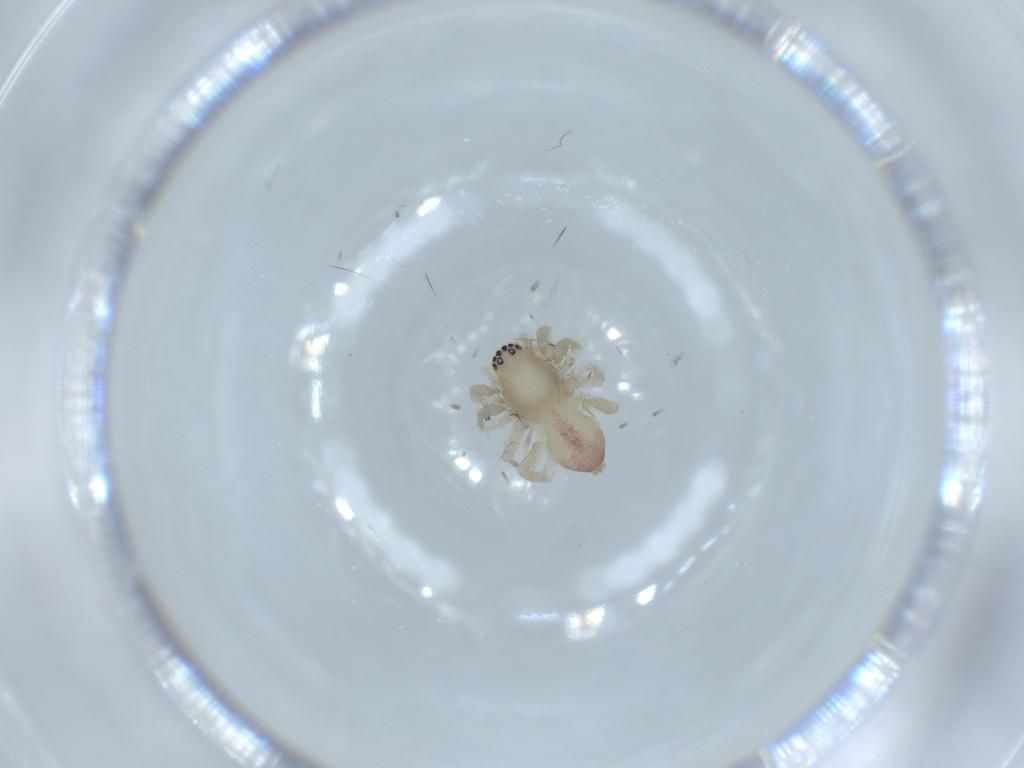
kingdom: Animalia
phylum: Arthropoda
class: Arachnida
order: Araneae
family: Clubionidae
